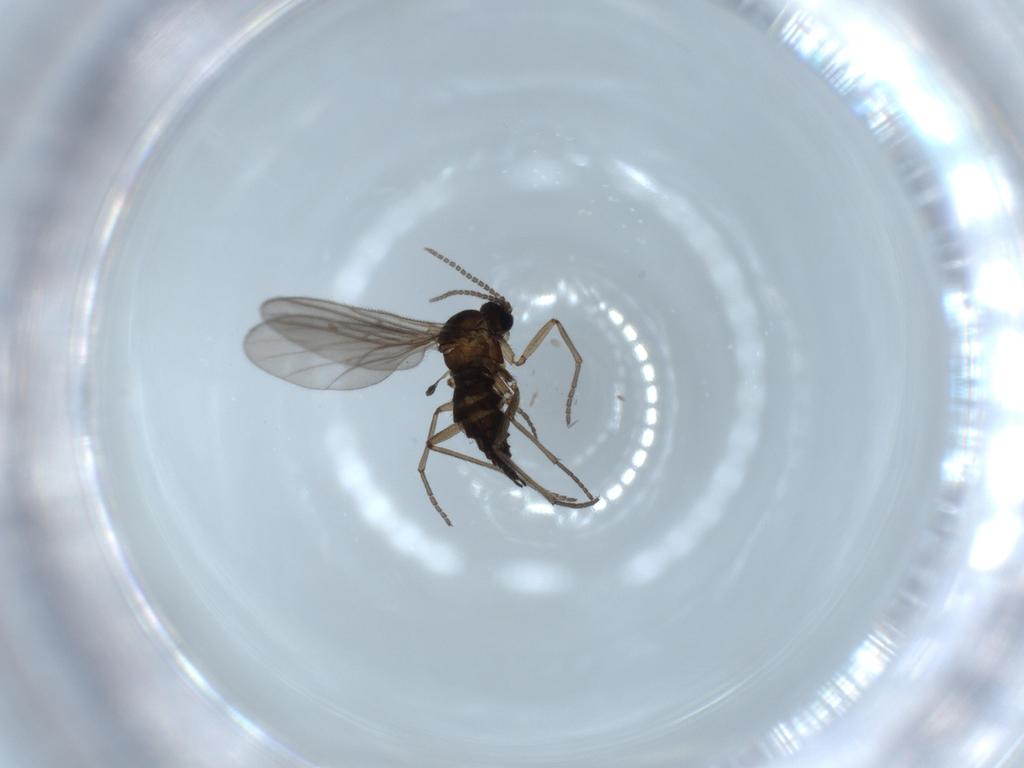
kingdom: Animalia
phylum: Arthropoda
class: Insecta
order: Diptera
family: Sciaridae
